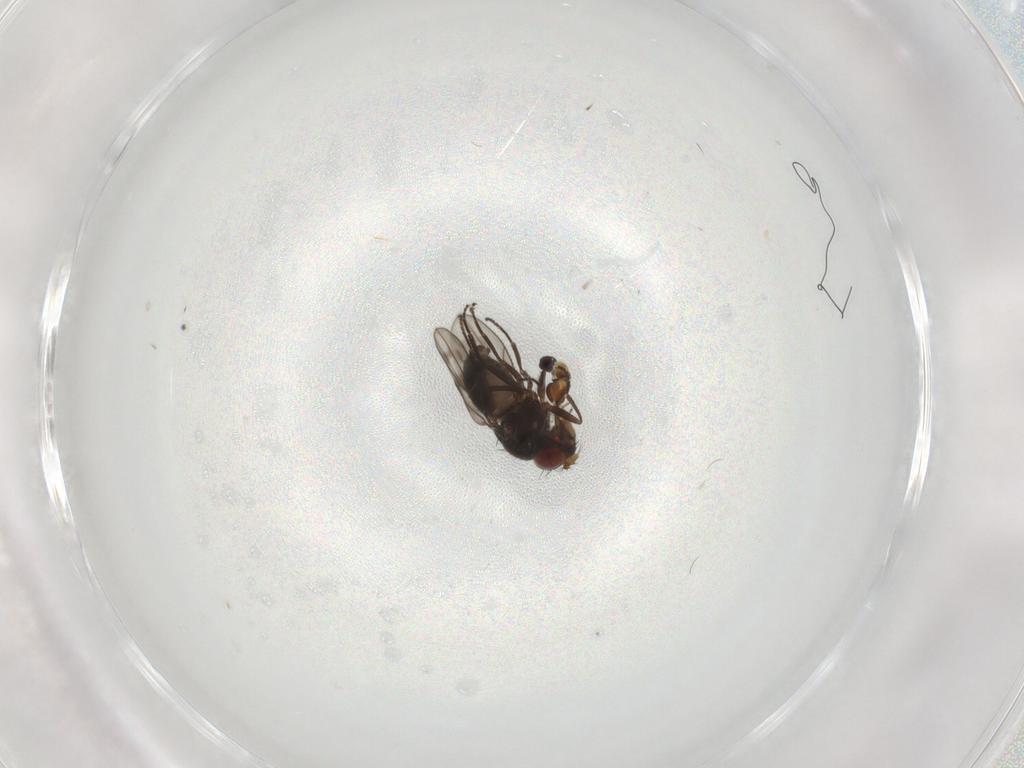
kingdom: Animalia
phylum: Arthropoda
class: Insecta
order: Diptera
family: Ephydridae
